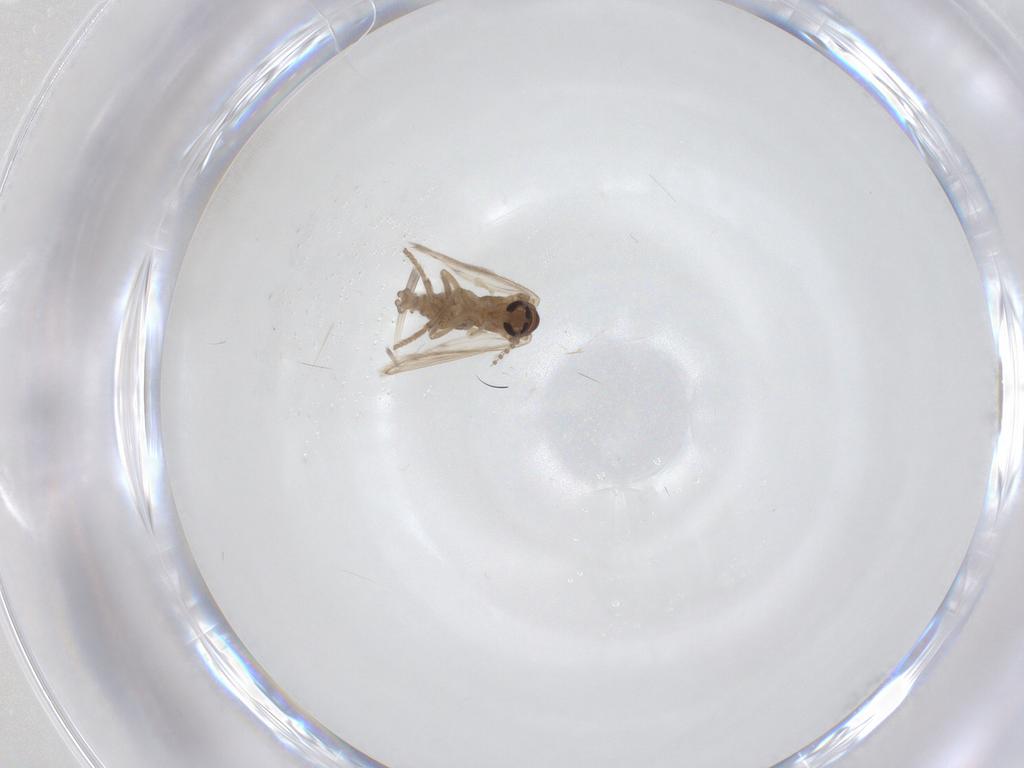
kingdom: Animalia
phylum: Arthropoda
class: Insecta
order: Diptera
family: Psychodidae
